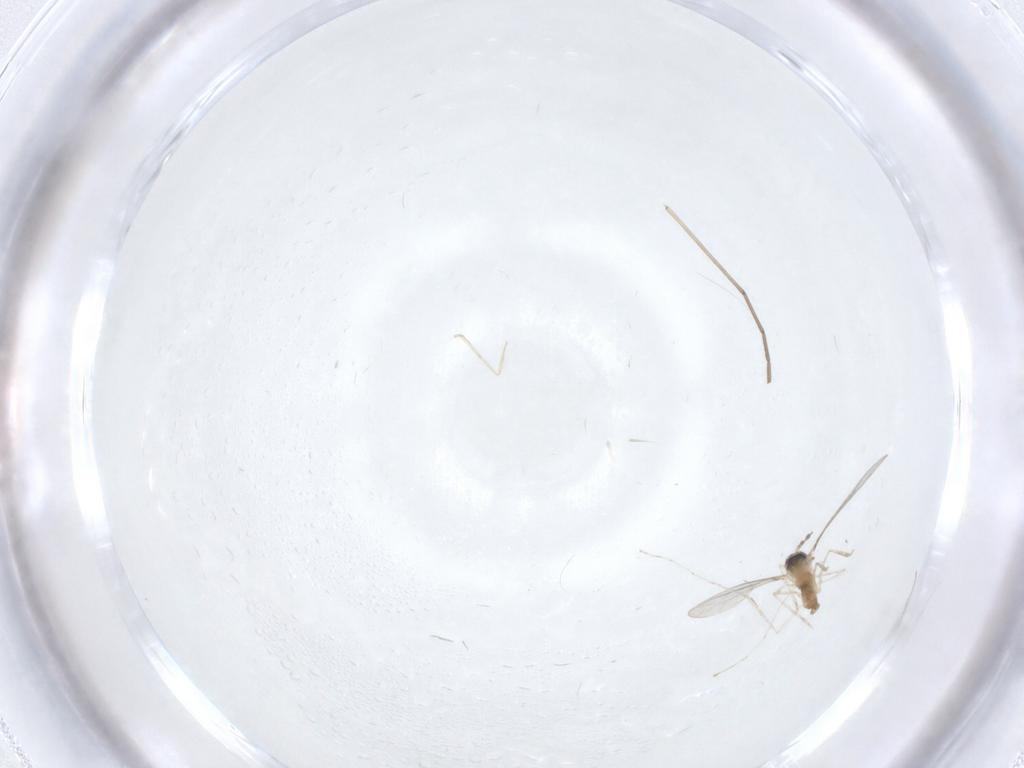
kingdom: Animalia
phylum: Arthropoda
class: Insecta
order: Diptera
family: Cecidomyiidae
